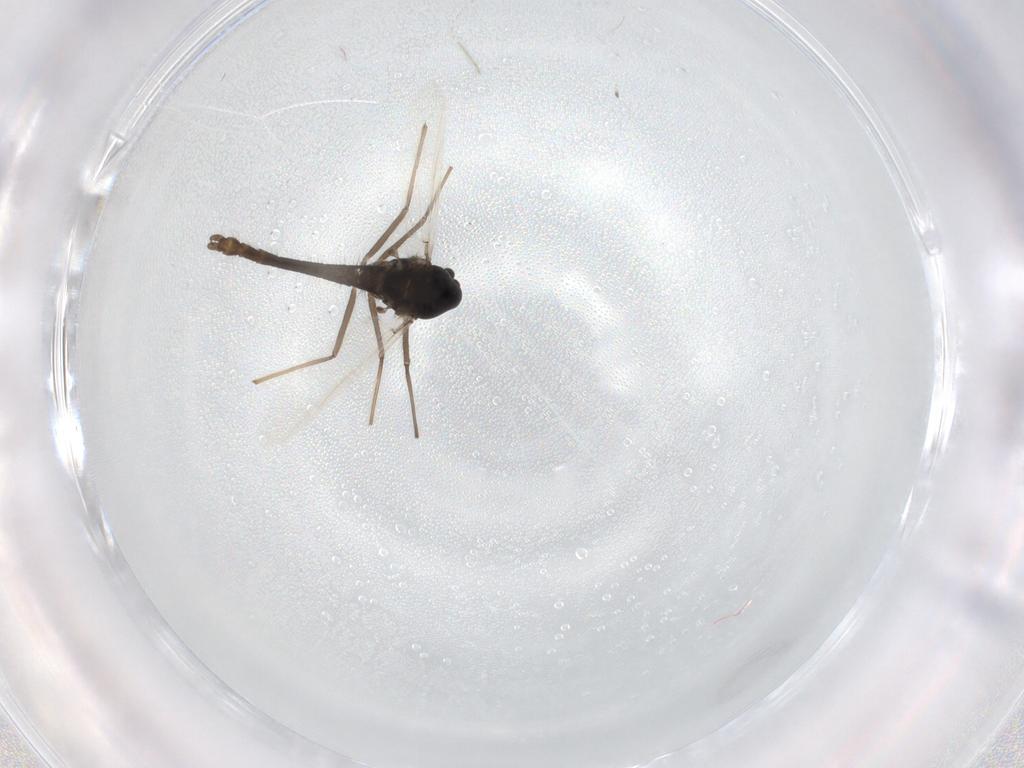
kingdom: Animalia
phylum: Arthropoda
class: Insecta
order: Diptera
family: Chironomidae
